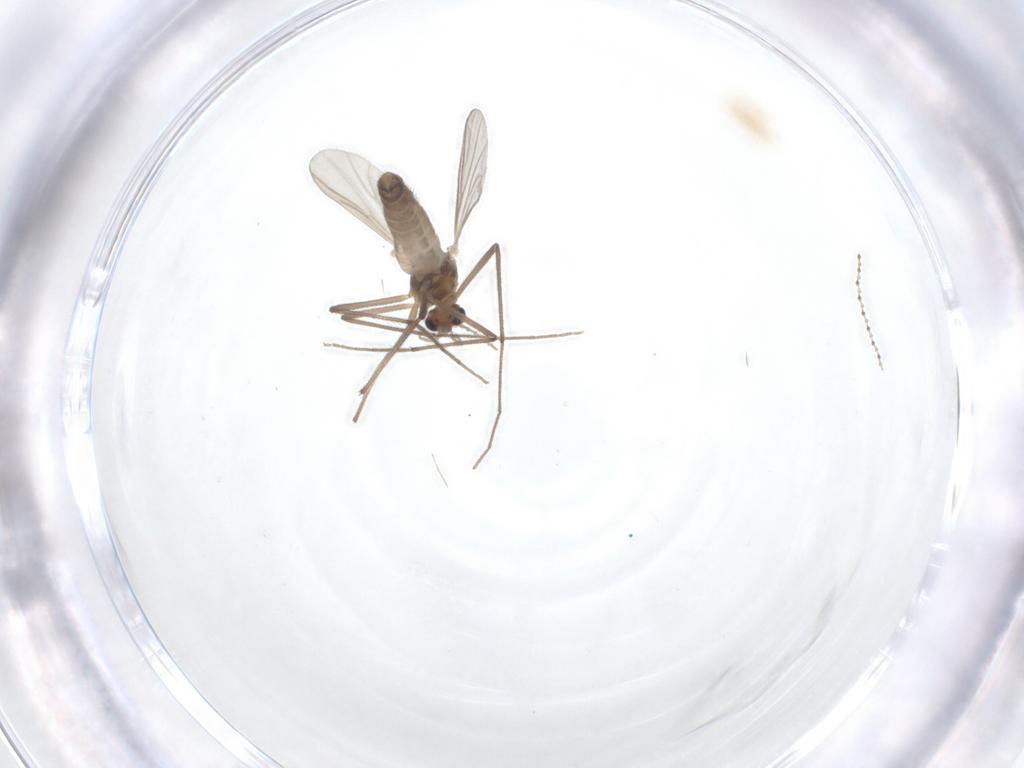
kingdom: Animalia
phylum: Arthropoda
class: Insecta
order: Diptera
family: Chironomidae
